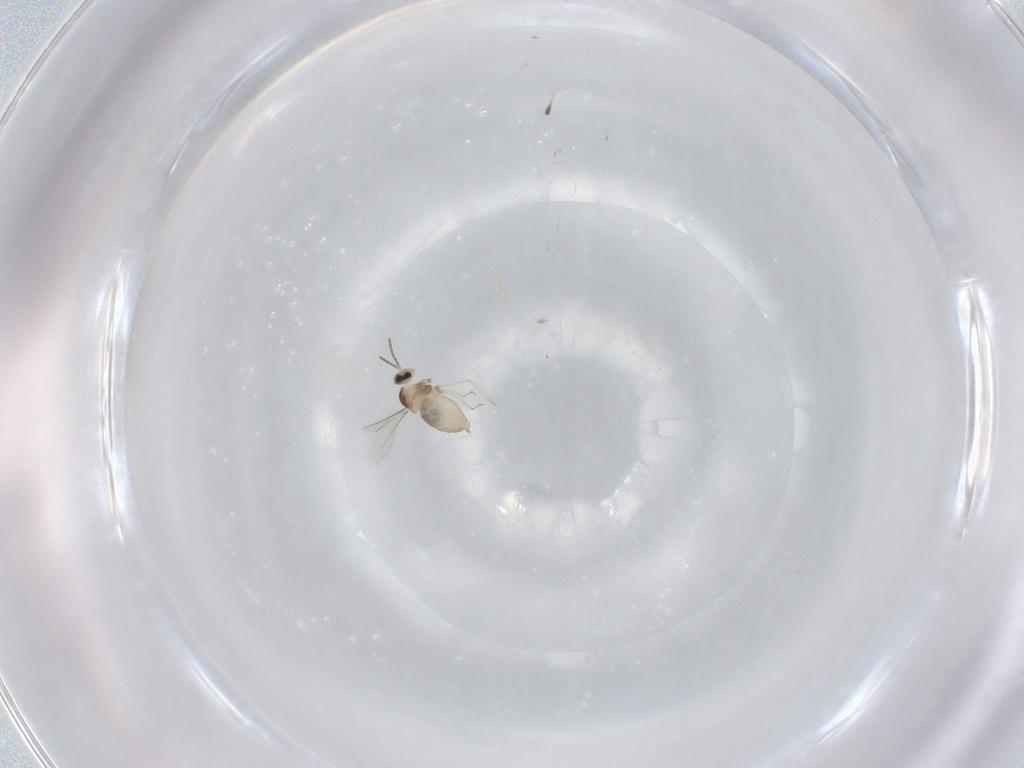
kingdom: Animalia
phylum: Arthropoda
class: Insecta
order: Diptera
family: Cecidomyiidae
